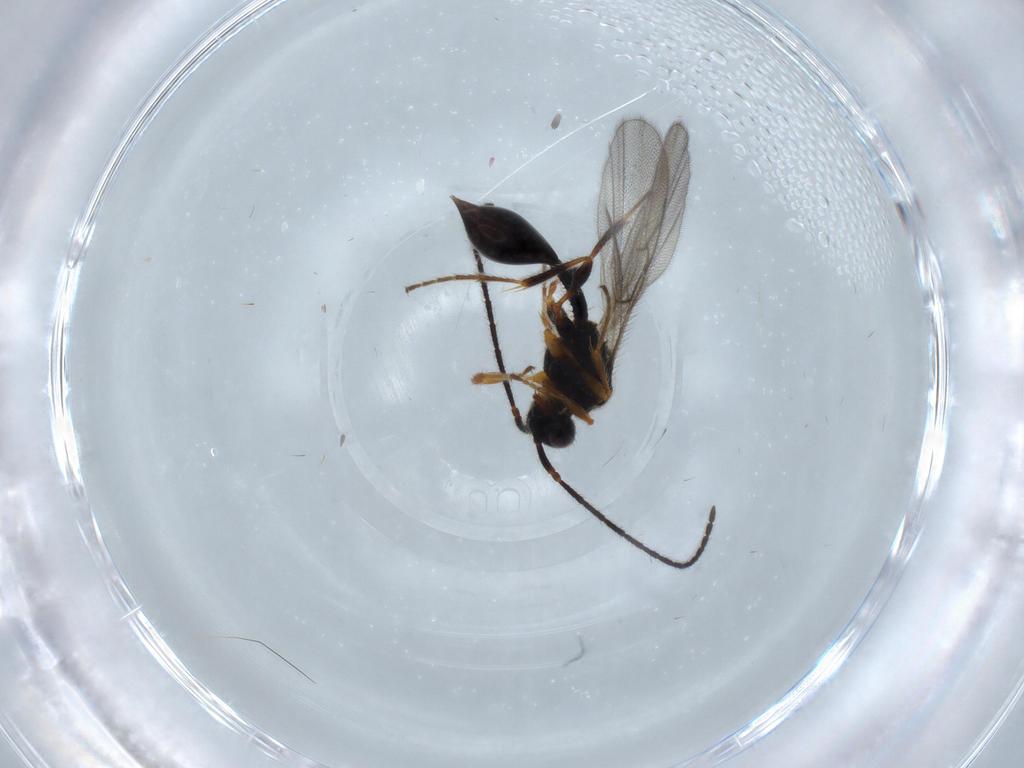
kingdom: Animalia
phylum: Arthropoda
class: Insecta
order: Hymenoptera
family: Diapriidae
